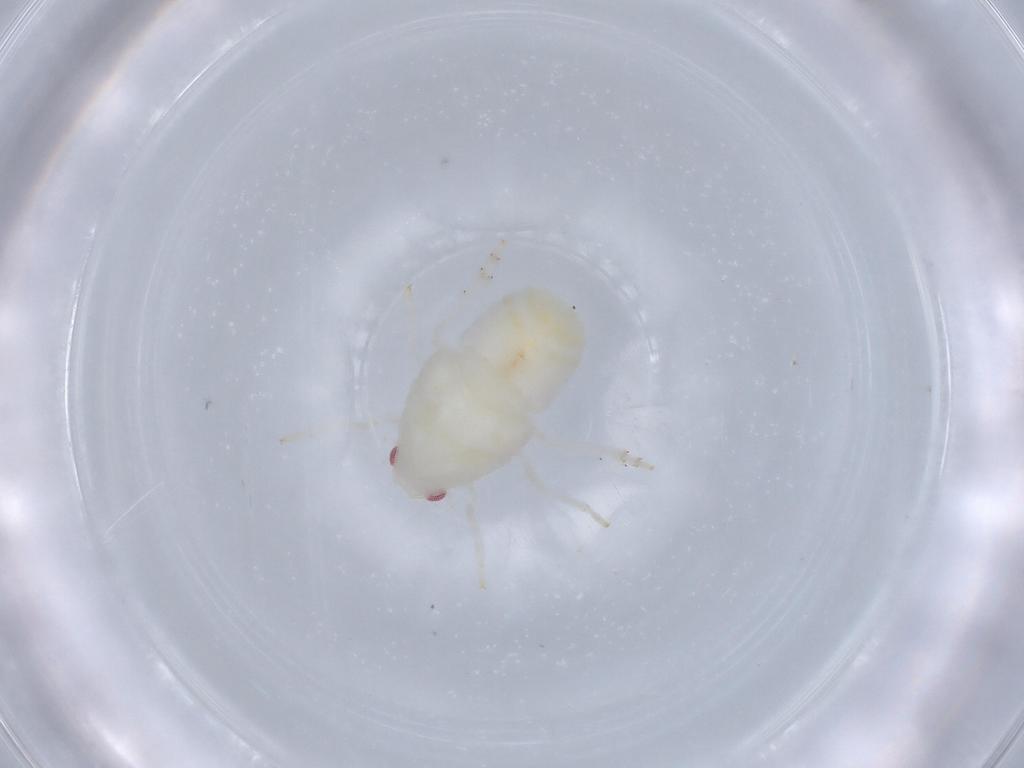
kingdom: Animalia
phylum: Arthropoda
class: Insecta
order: Hemiptera
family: Flatidae
